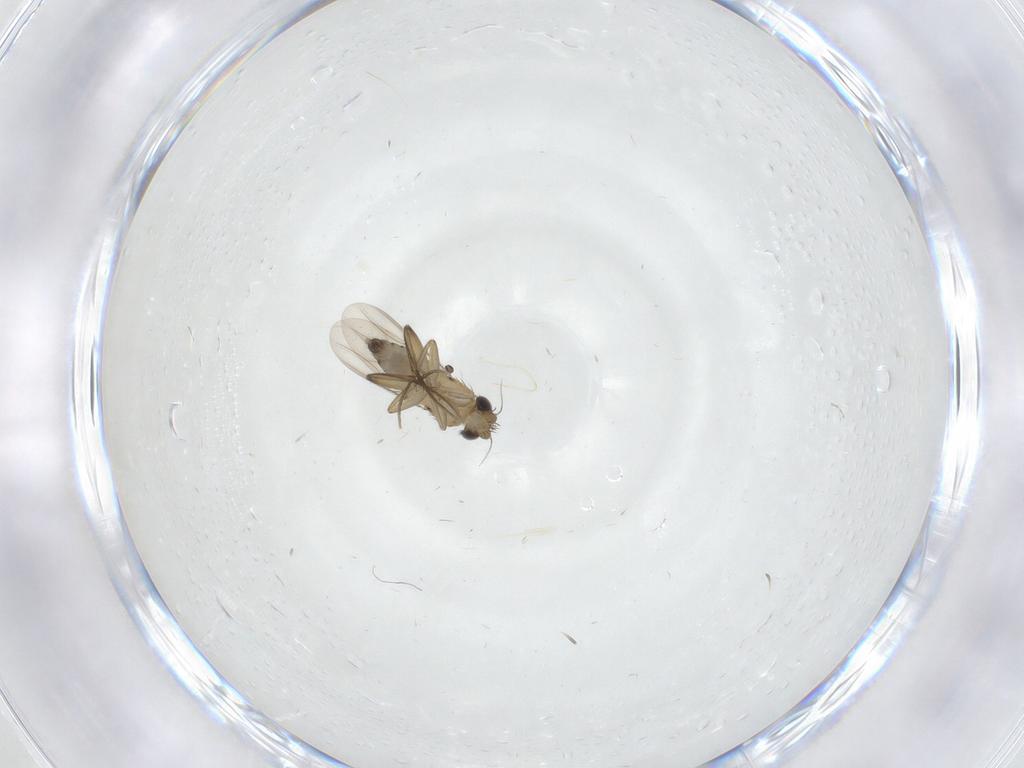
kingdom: Animalia
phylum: Arthropoda
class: Insecta
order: Diptera
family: Phoridae
